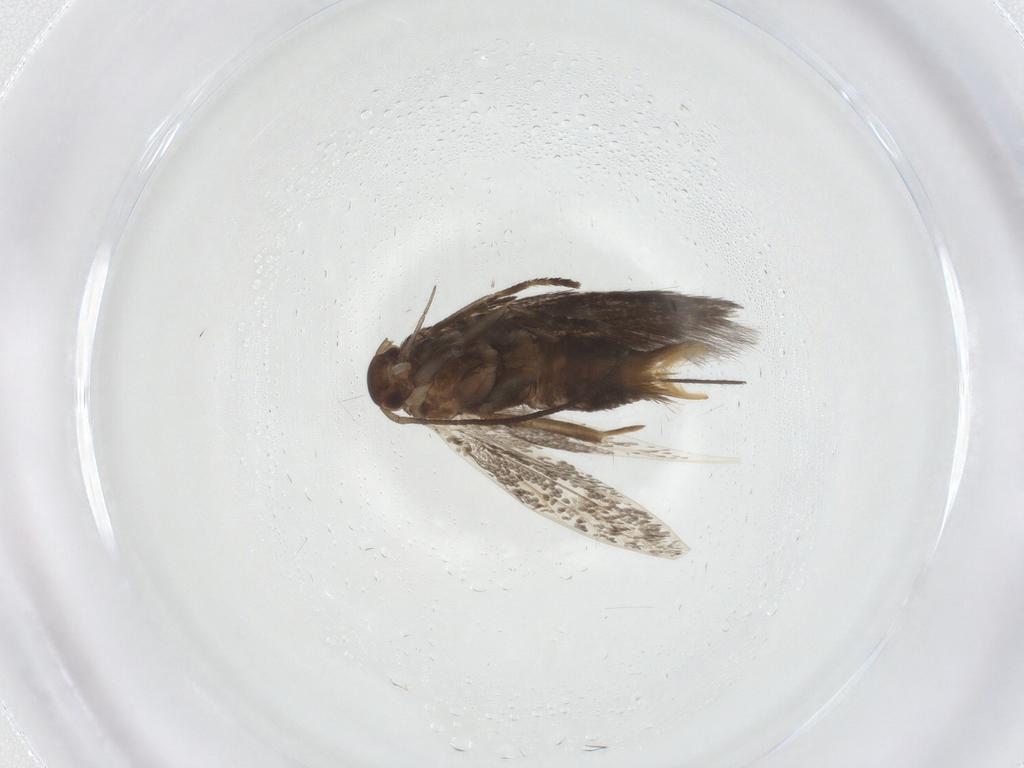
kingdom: Animalia
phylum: Arthropoda
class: Insecta
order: Lepidoptera
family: Elachistidae
